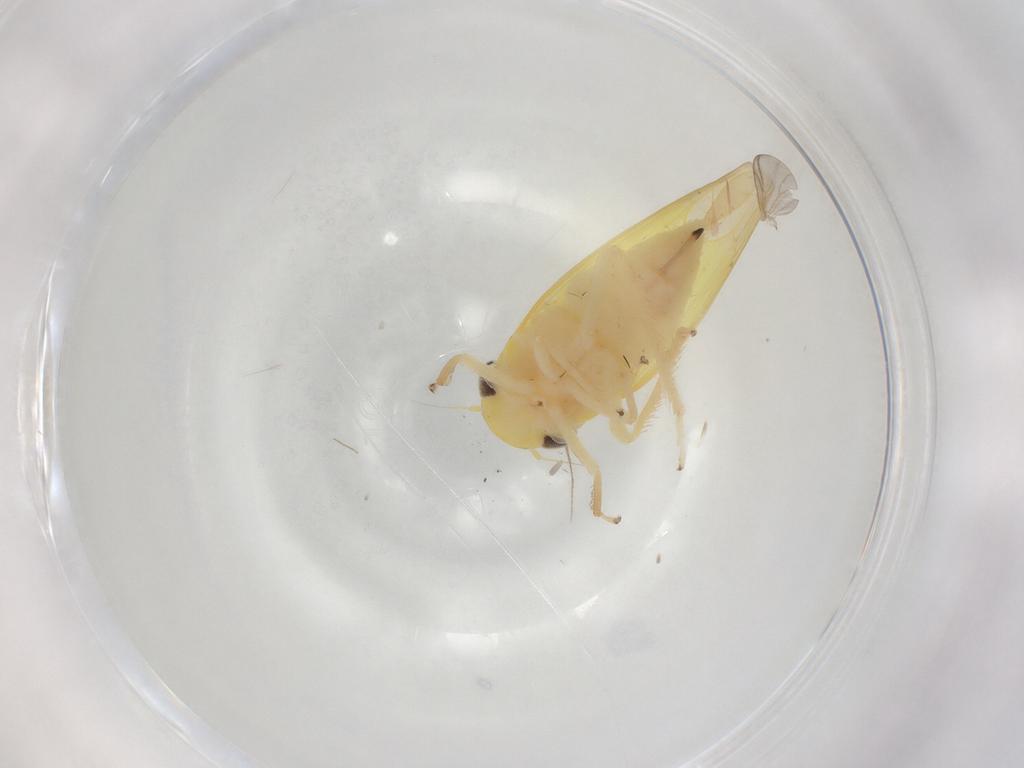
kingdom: Animalia
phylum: Arthropoda
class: Insecta
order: Hemiptera
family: Cicadellidae
